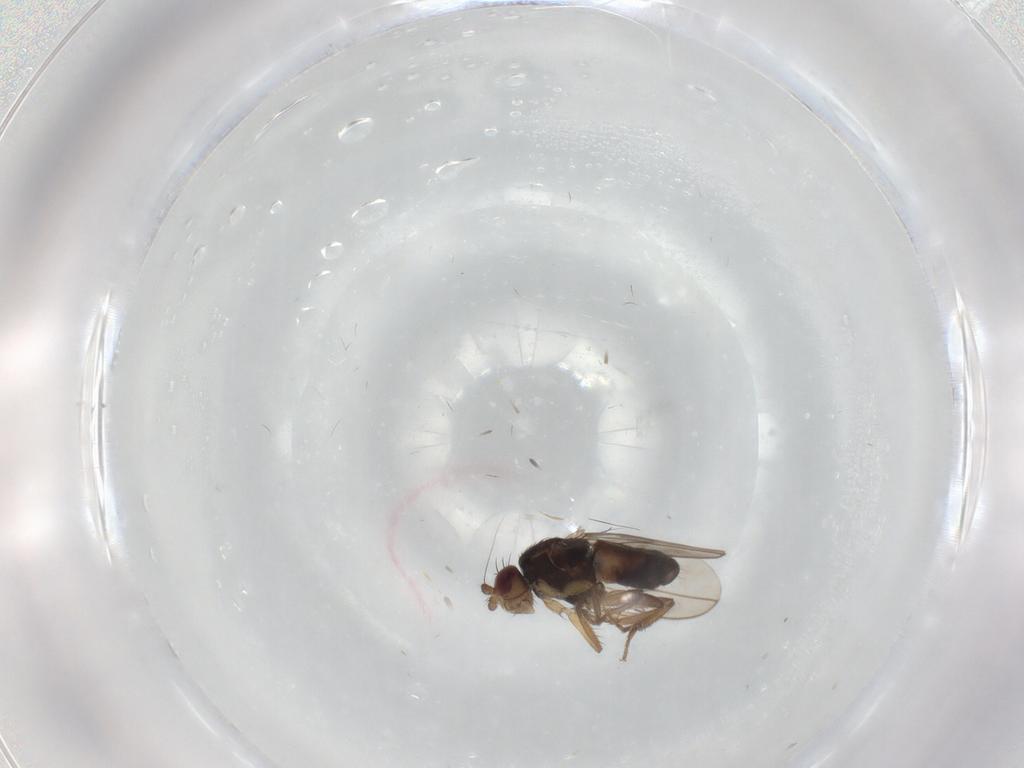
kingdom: Animalia
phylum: Arthropoda
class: Insecta
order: Diptera
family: Sphaeroceridae
